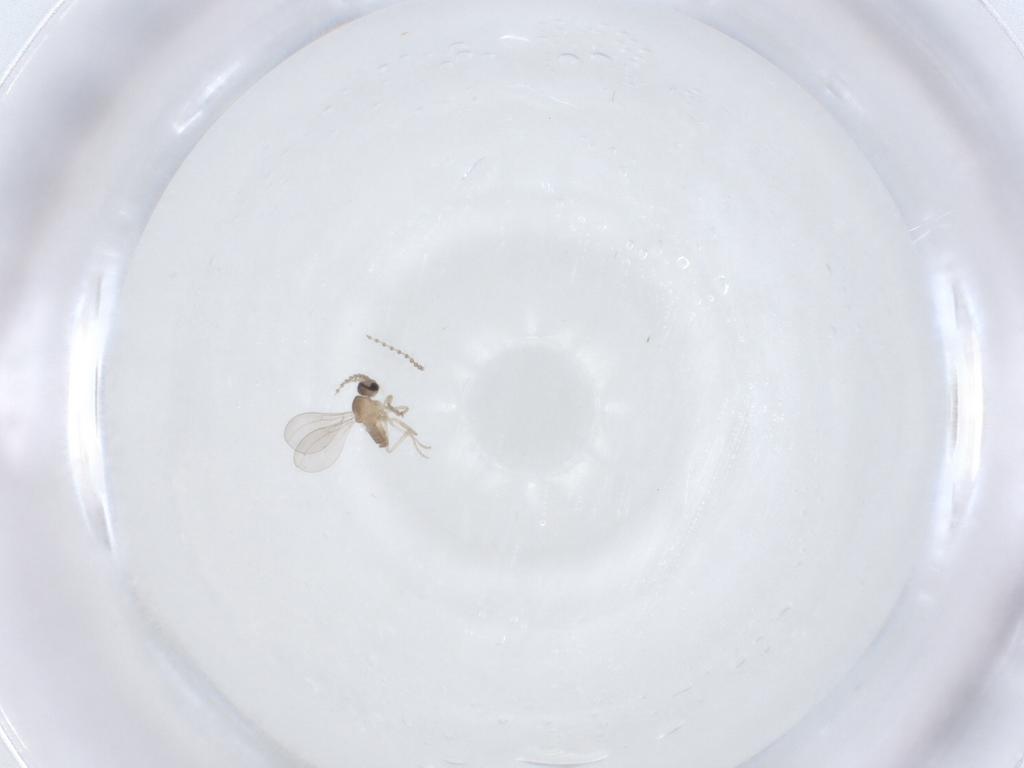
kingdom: Animalia
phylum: Arthropoda
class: Insecta
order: Diptera
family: Cecidomyiidae
